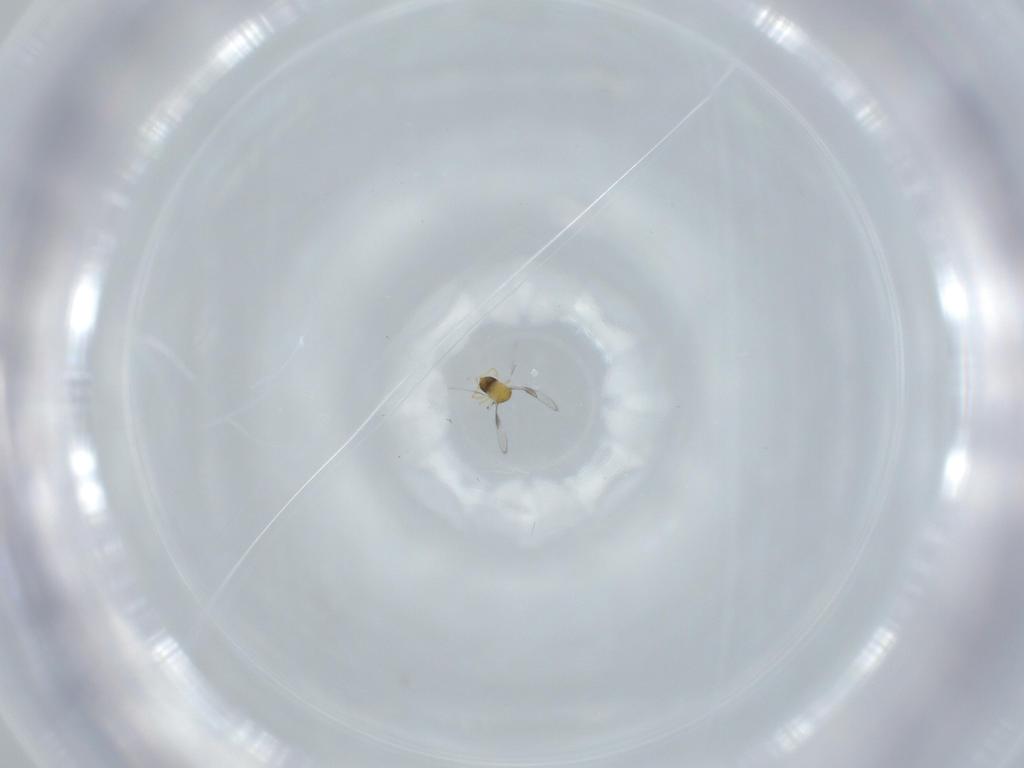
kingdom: Animalia
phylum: Arthropoda
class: Insecta
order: Hymenoptera
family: Trichogrammatidae
